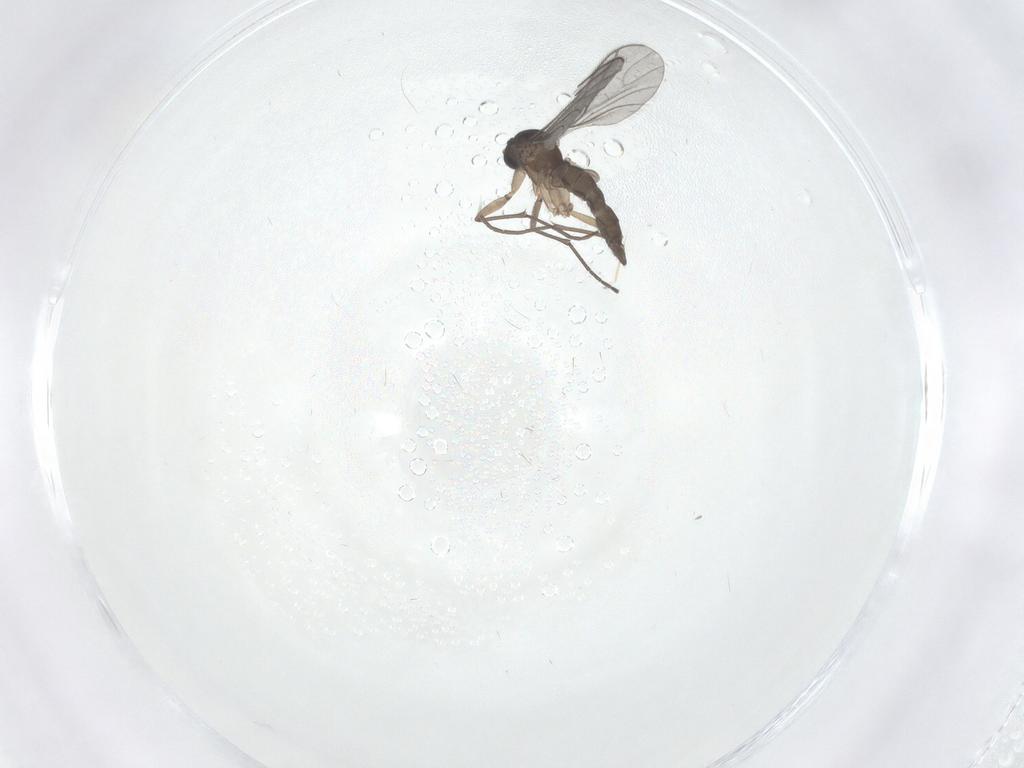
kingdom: Animalia
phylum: Arthropoda
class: Insecta
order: Diptera
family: Sciaridae
